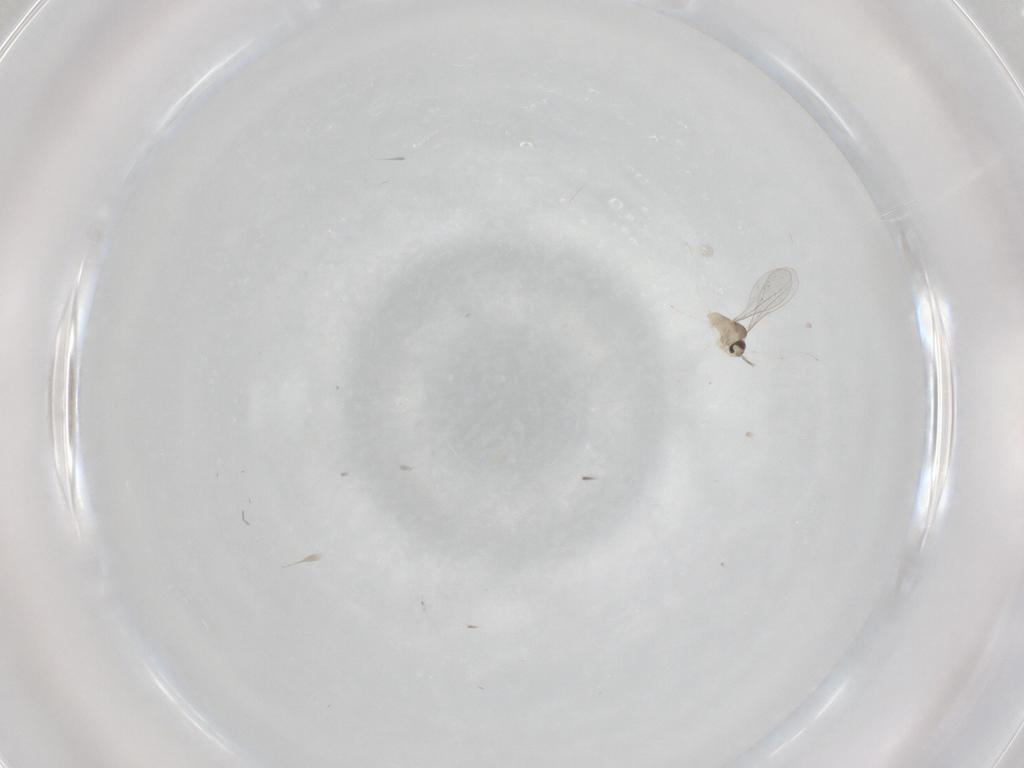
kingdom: Animalia
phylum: Arthropoda
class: Insecta
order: Diptera
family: Cecidomyiidae
